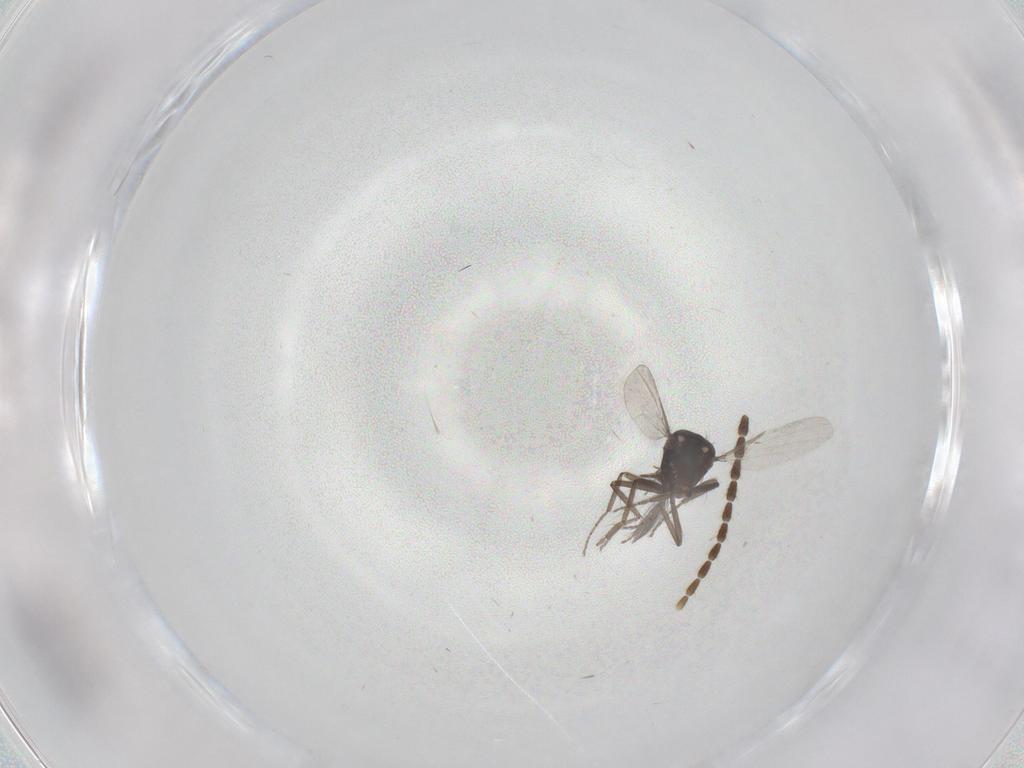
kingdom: Animalia
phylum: Arthropoda
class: Insecta
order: Diptera
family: Ceratopogonidae
